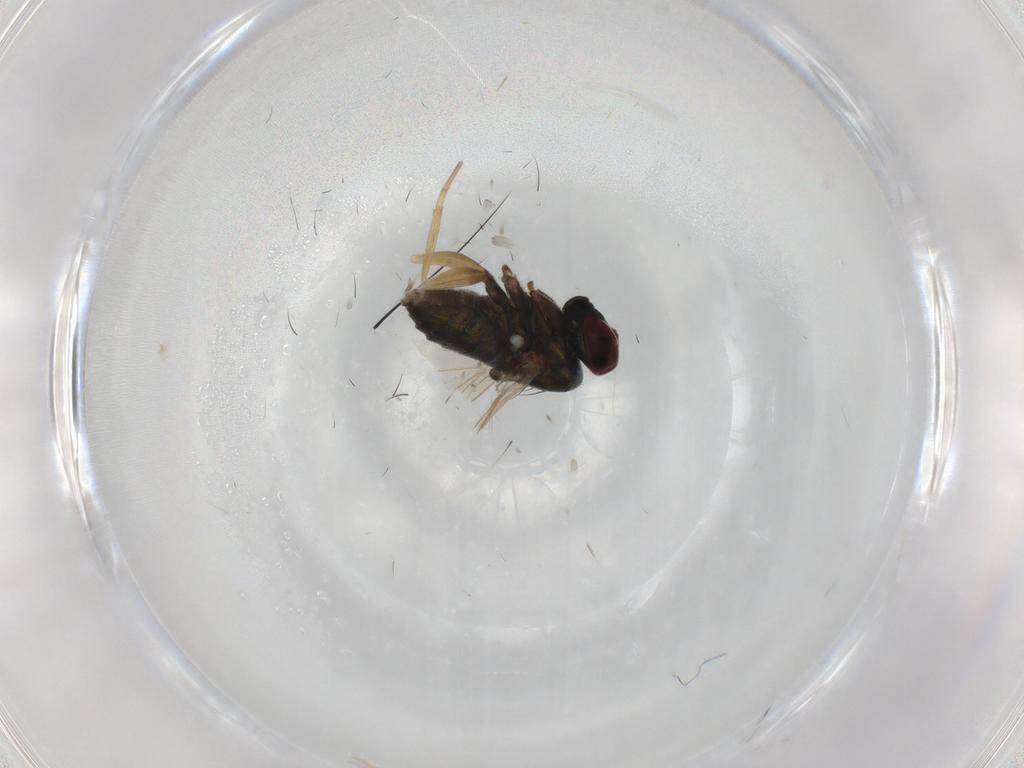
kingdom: Animalia
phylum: Arthropoda
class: Insecta
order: Diptera
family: Muscidae
